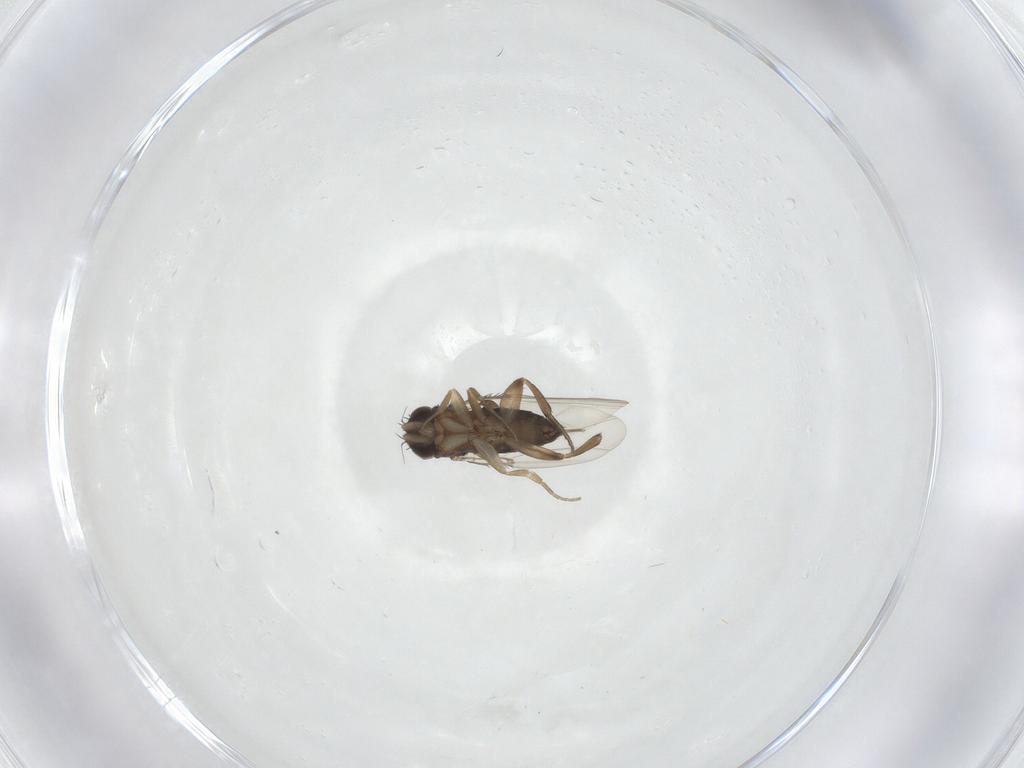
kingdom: Animalia
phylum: Arthropoda
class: Insecta
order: Diptera
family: Phoridae
